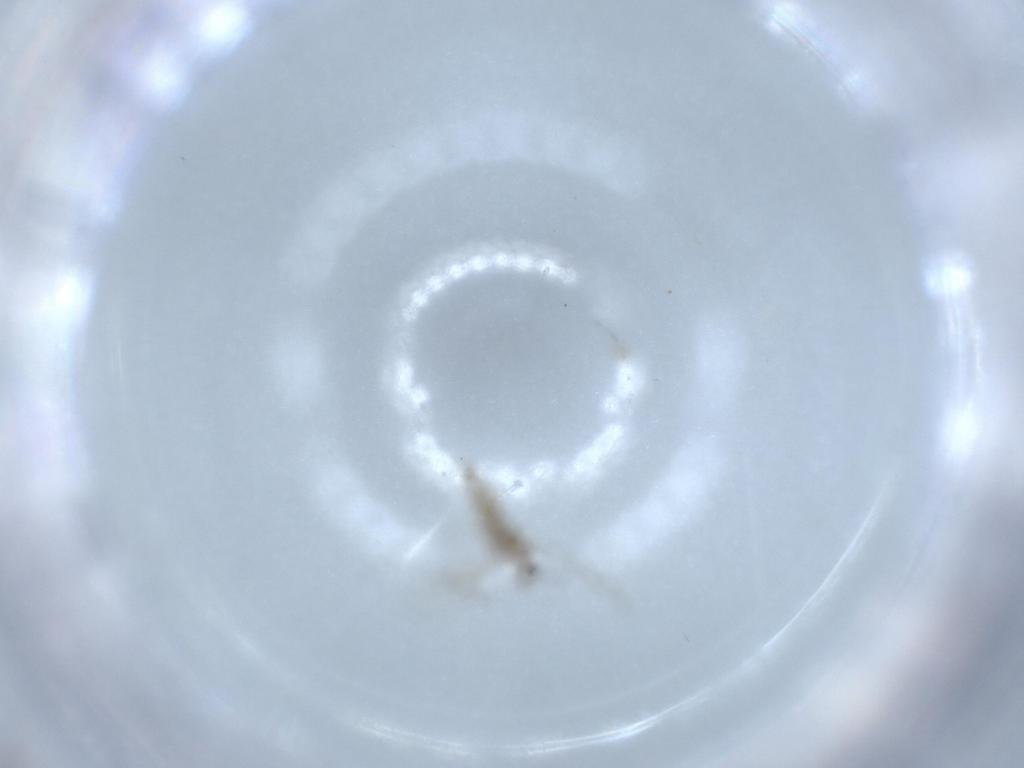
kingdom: Animalia
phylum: Arthropoda
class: Insecta
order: Diptera
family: Cecidomyiidae
